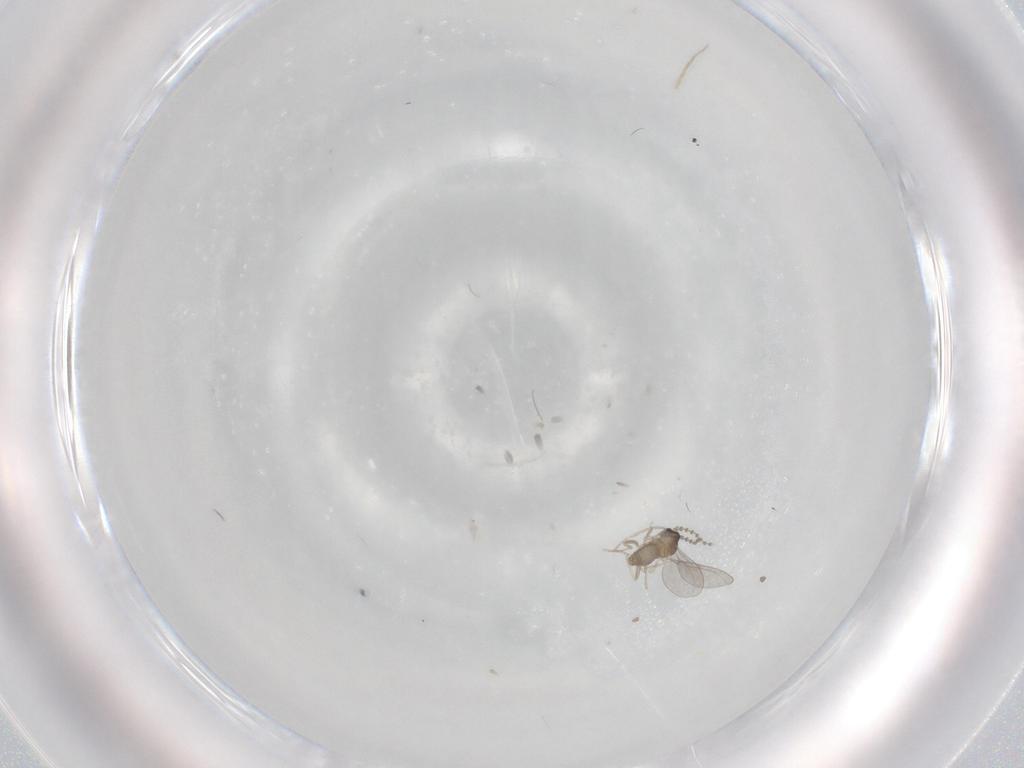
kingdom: Animalia
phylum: Arthropoda
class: Insecta
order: Diptera
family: Cecidomyiidae
